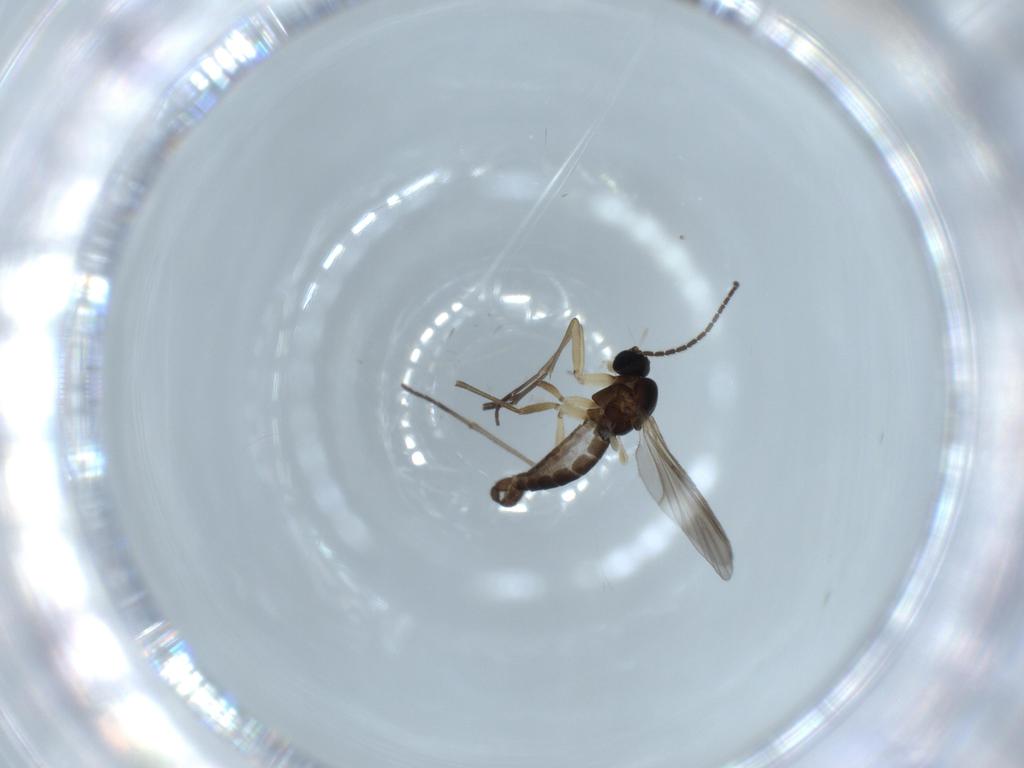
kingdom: Animalia
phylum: Arthropoda
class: Insecta
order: Diptera
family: Sciaridae
